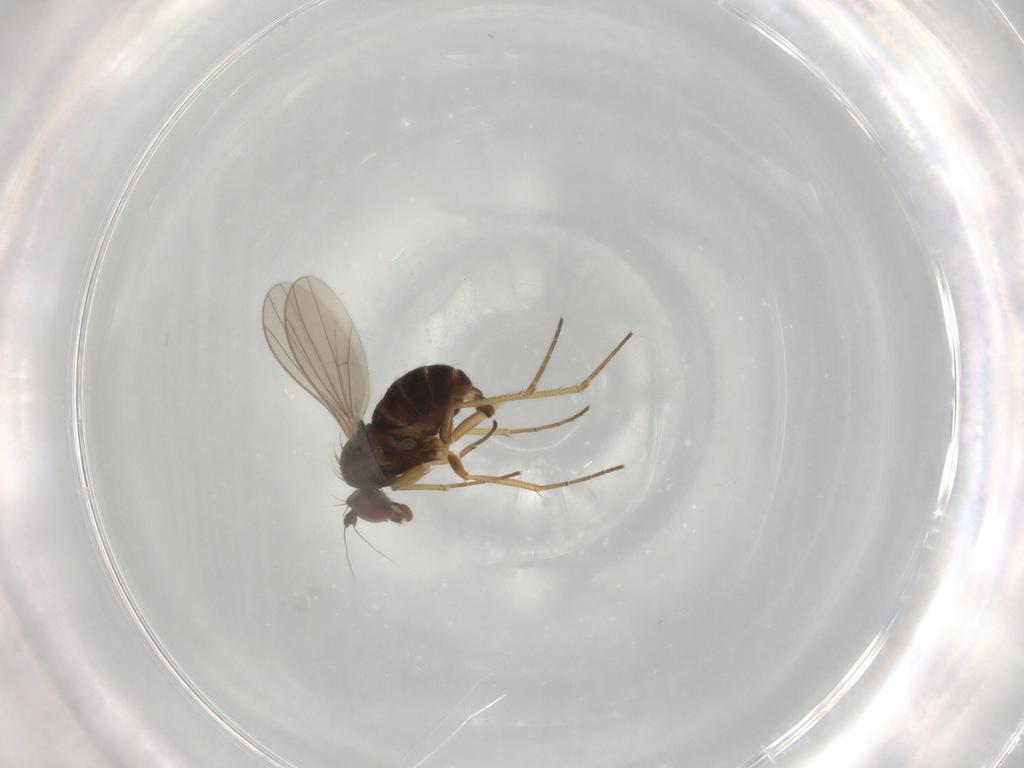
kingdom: Animalia
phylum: Arthropoda
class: Insecta
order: Diptera
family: Dolichopodidae
